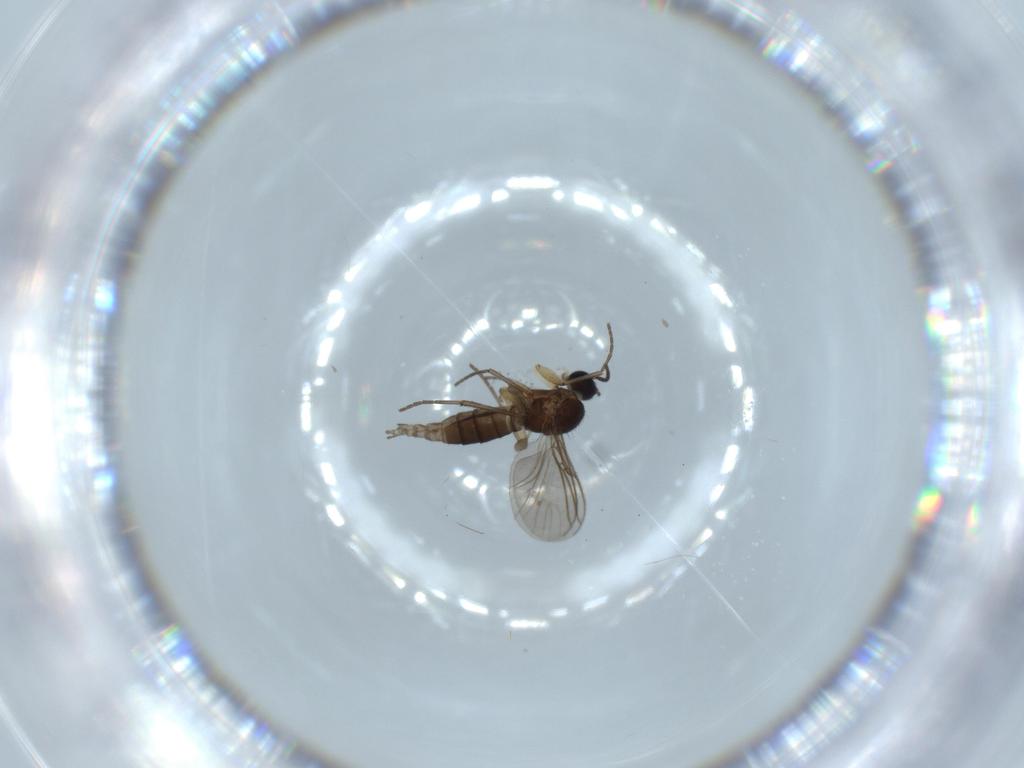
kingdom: Animalia
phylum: Arthropoda
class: Insecta
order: Diptera
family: Sciaridae
